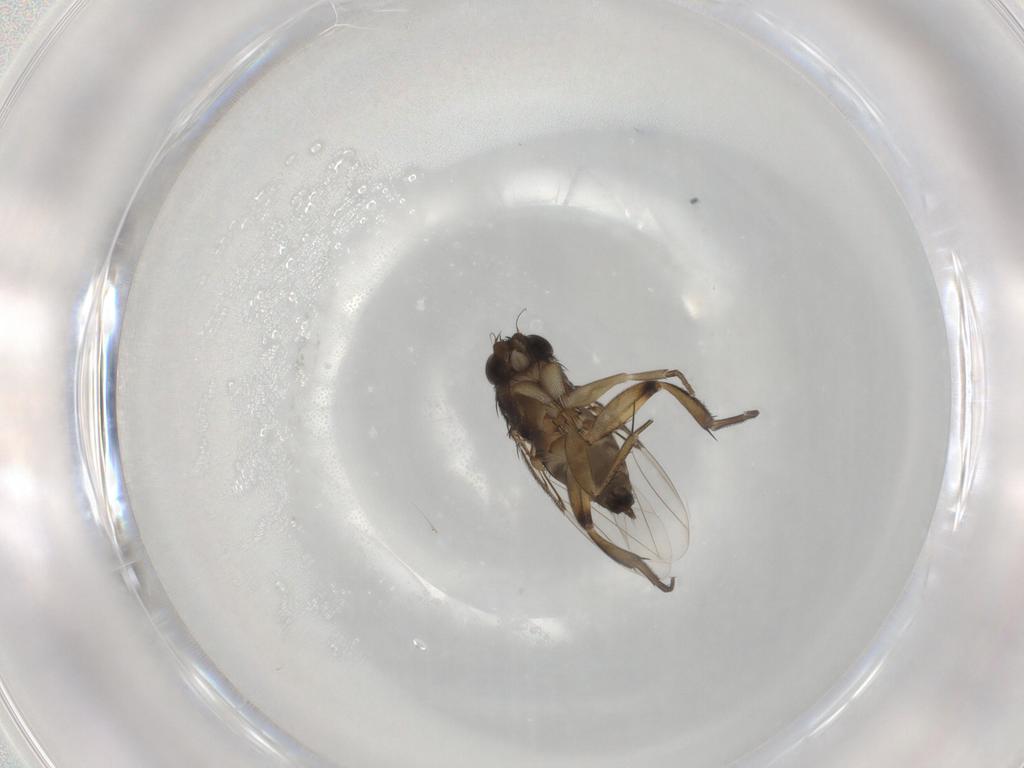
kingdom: Animalia
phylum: Arthropoda
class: Insecta
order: Diptera
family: Phoridae
